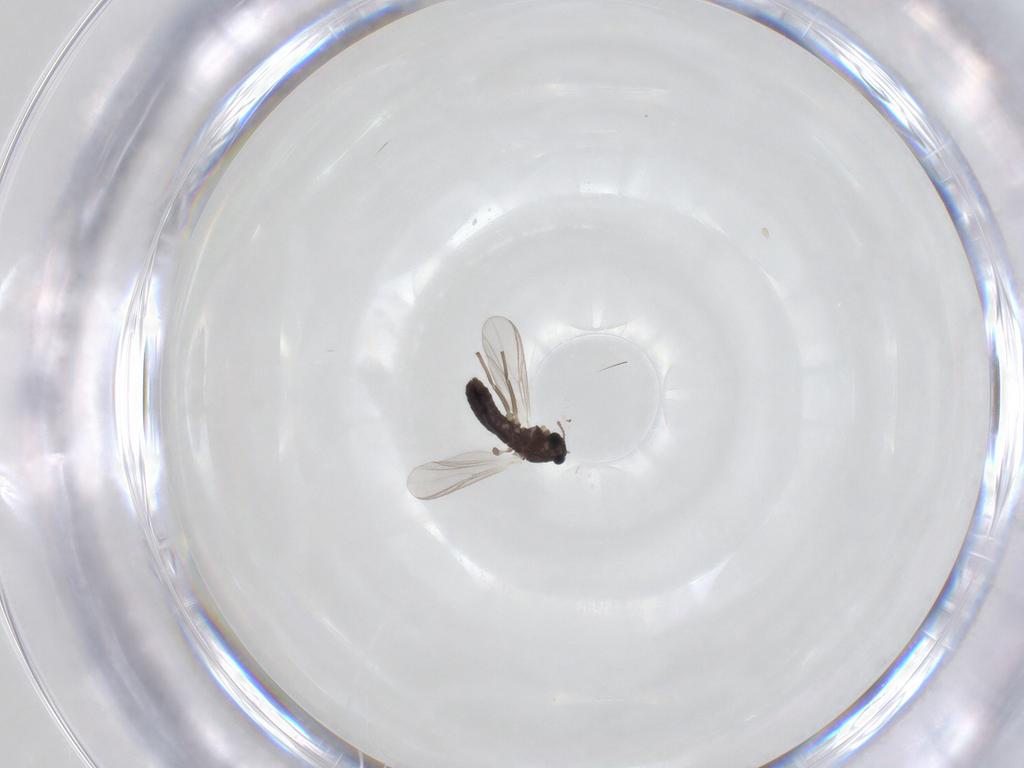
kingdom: Animalia
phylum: Arthropoda
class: Insecta
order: Diptera
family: Chironomidae
